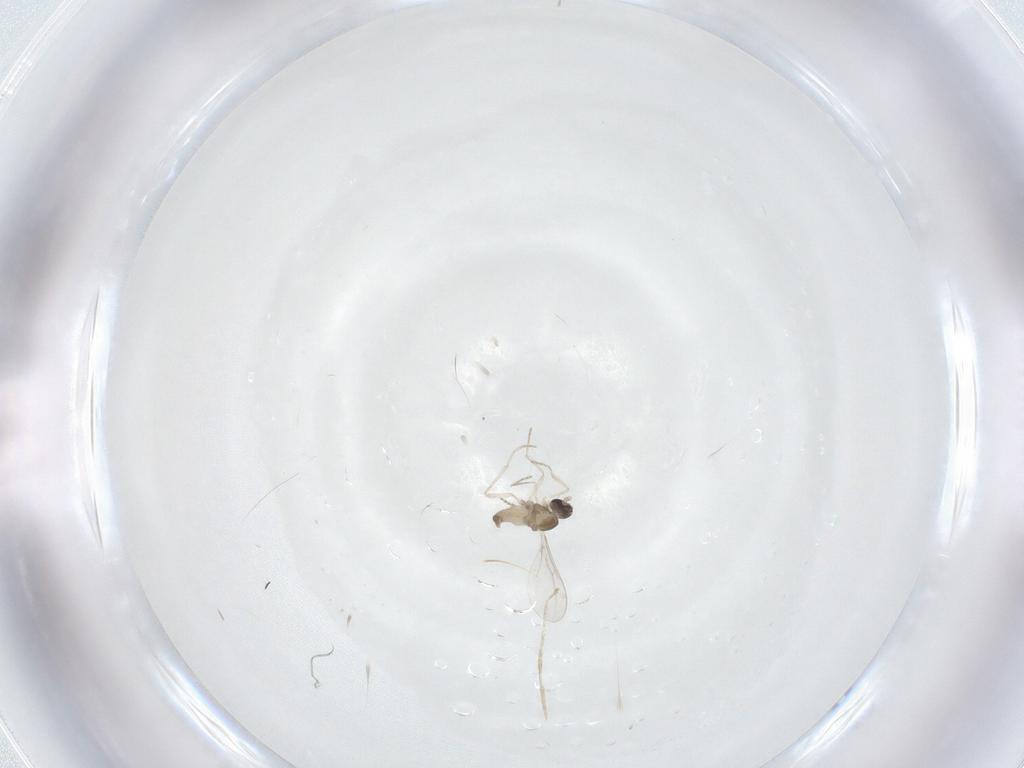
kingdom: Animalia
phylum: Arthropoda
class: Insecta
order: Diptera
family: Cecidomyiidae
